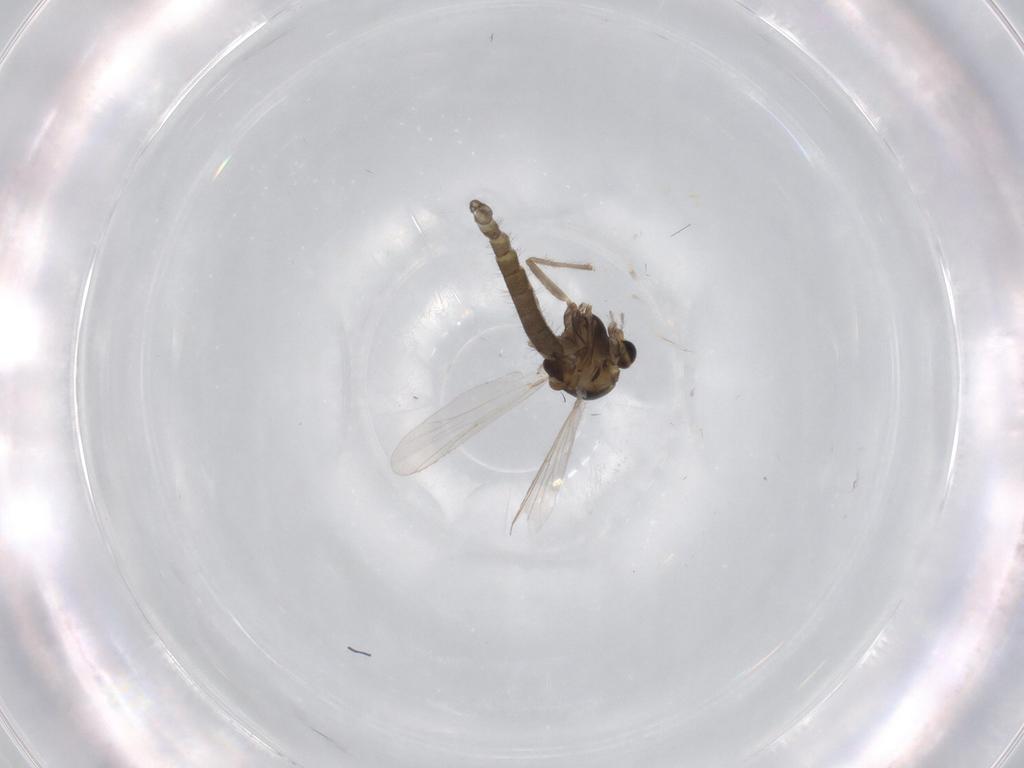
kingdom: Animalia
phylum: Arthropoda
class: Insecta
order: Diptera
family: Chironomidae
